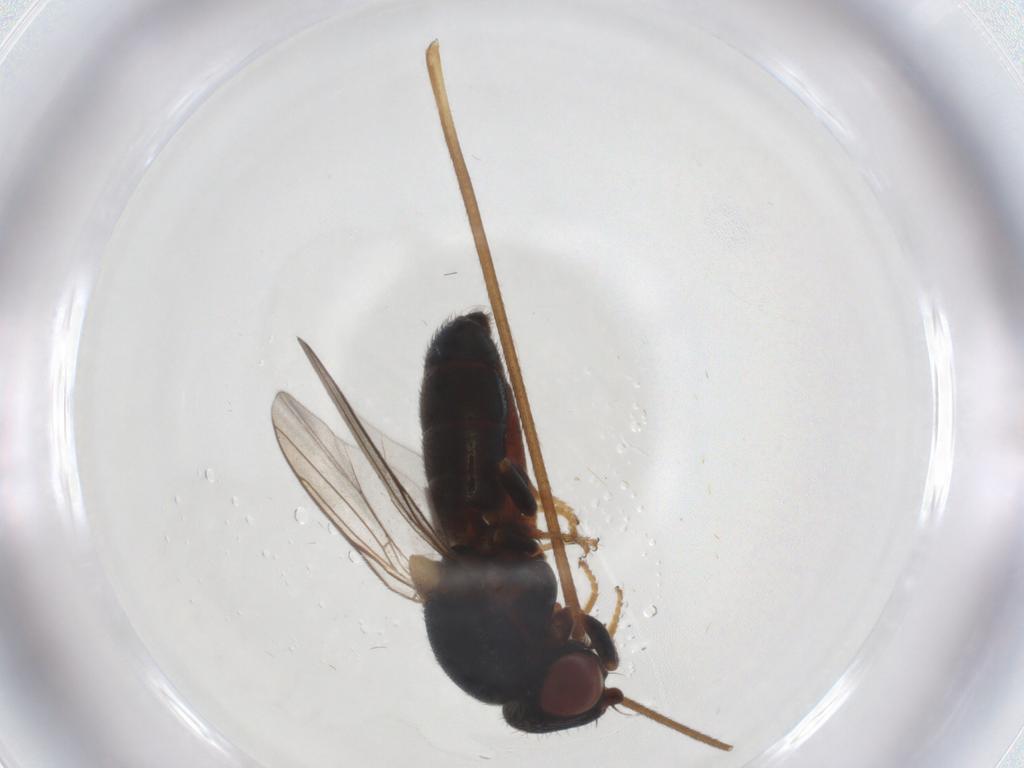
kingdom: Animalia
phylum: Arthropoda
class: Insecta
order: Diptera
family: Chloropidae
